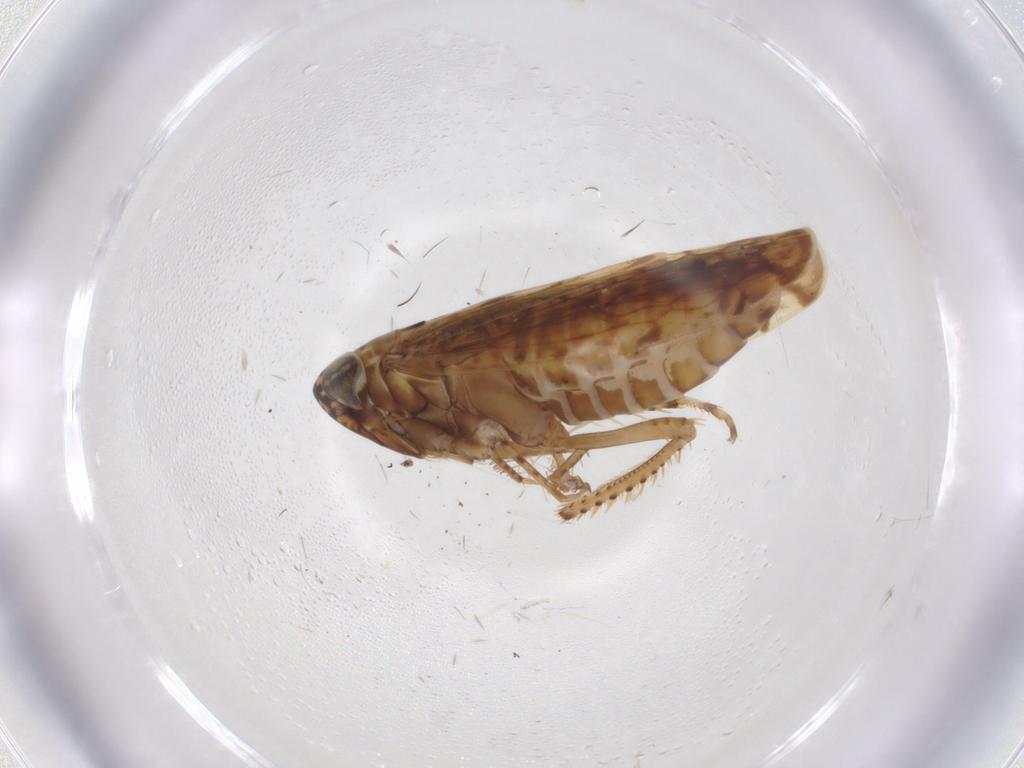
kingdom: Animalia
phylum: Arthropoda
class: Insecta
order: Hemiptera
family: Cicadellidae
